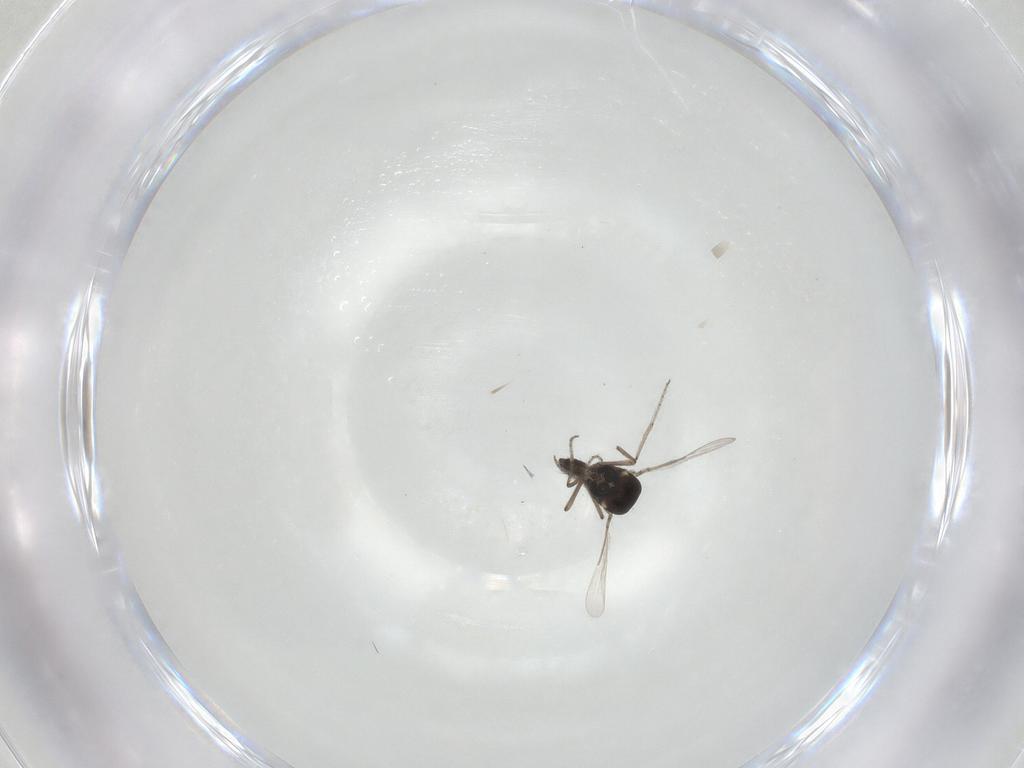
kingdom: Animalia
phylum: Arthropoda
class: Insecta
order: Diptera
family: Ceratopogonidae
